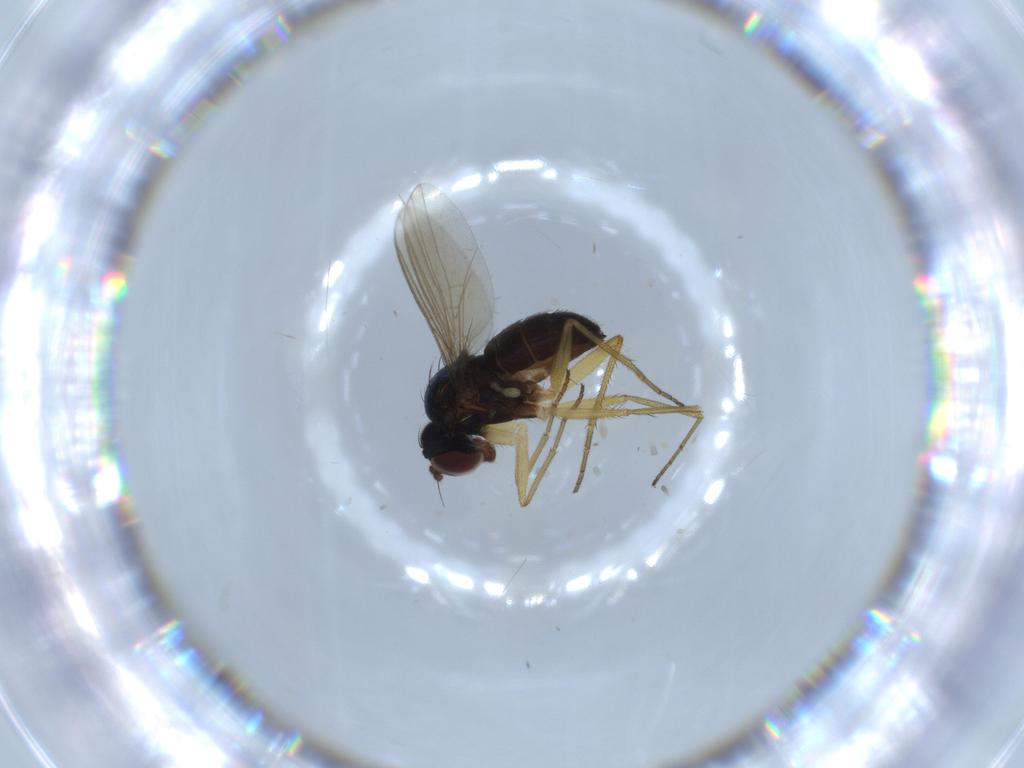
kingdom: Animalia
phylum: Arthropoda
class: Insecta
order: Diptera
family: Dolichopodidae
